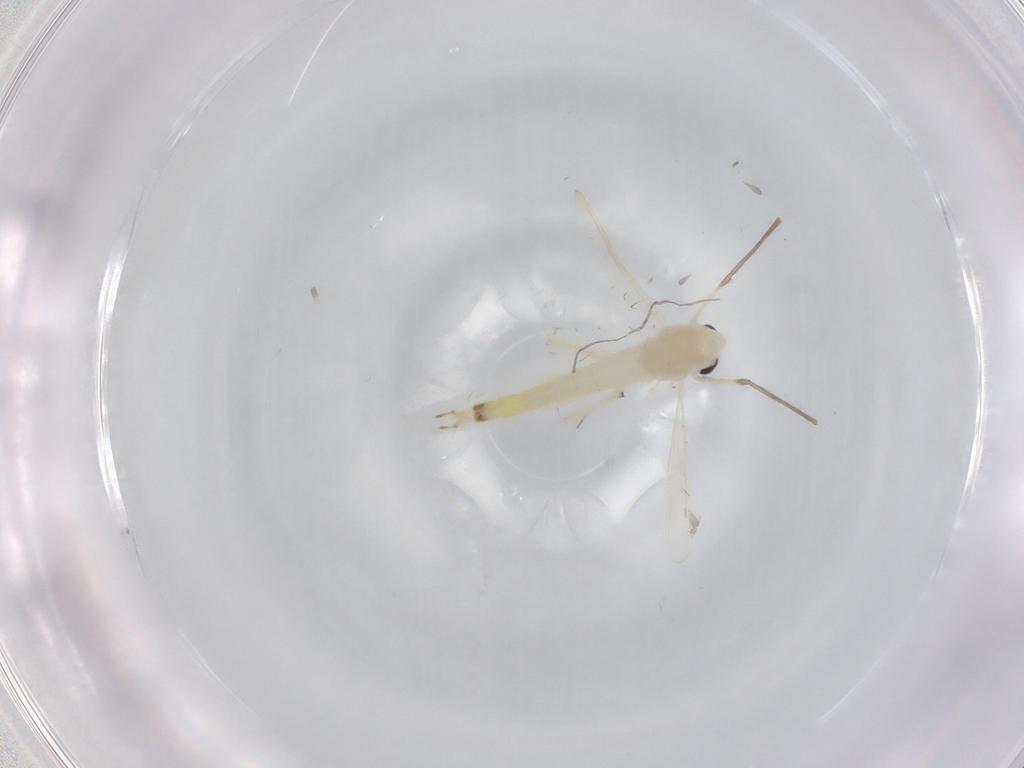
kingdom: Animalia
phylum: Arthropoda
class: Insecta
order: Diptera
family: Chironomidae
